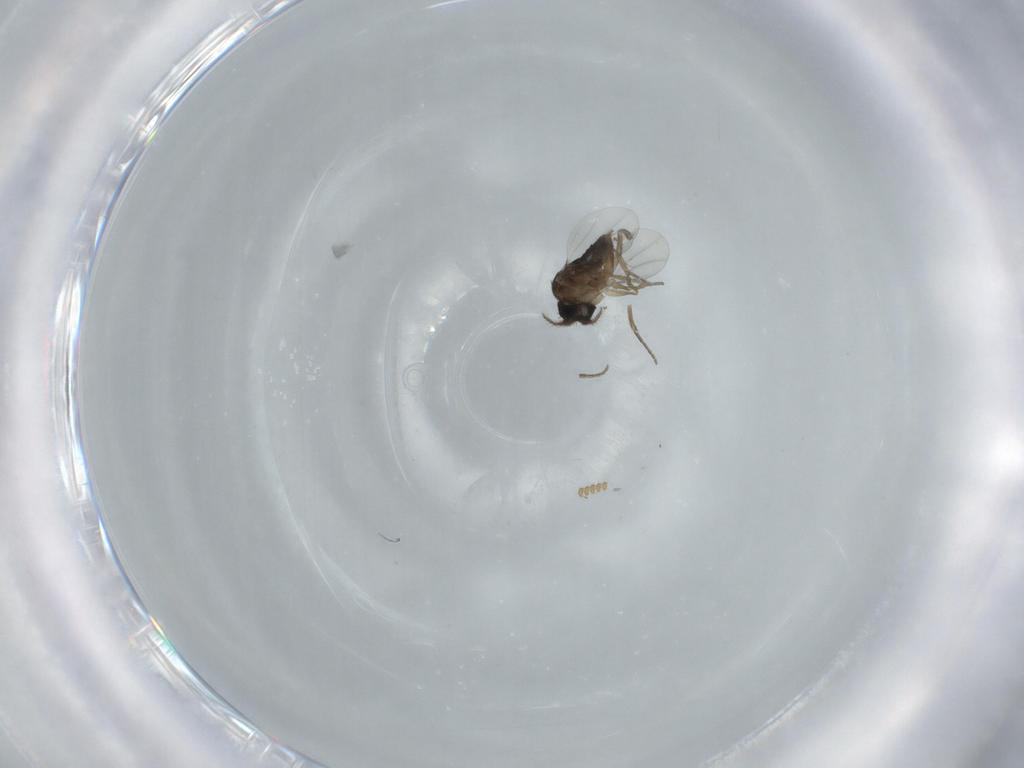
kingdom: Animalia
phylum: Arthropoda
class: Insecta
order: Diptera
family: Phoridae
